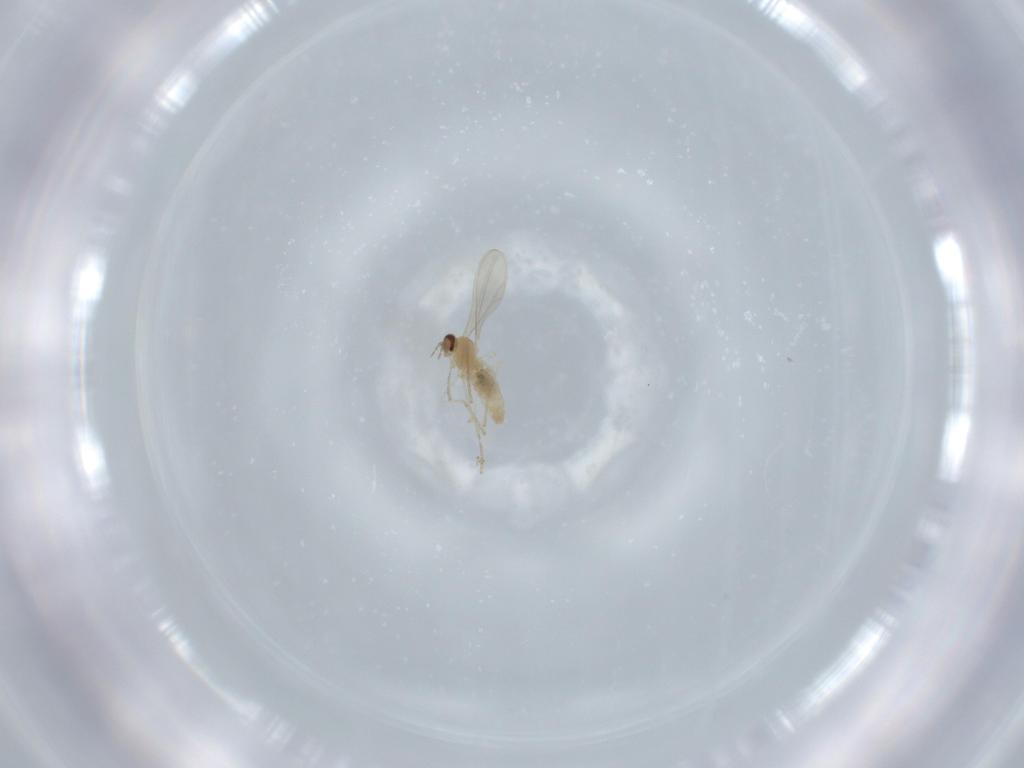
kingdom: Animalia
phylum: Arthropoda
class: Insecta
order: Diptera
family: Cecidomyiidae
